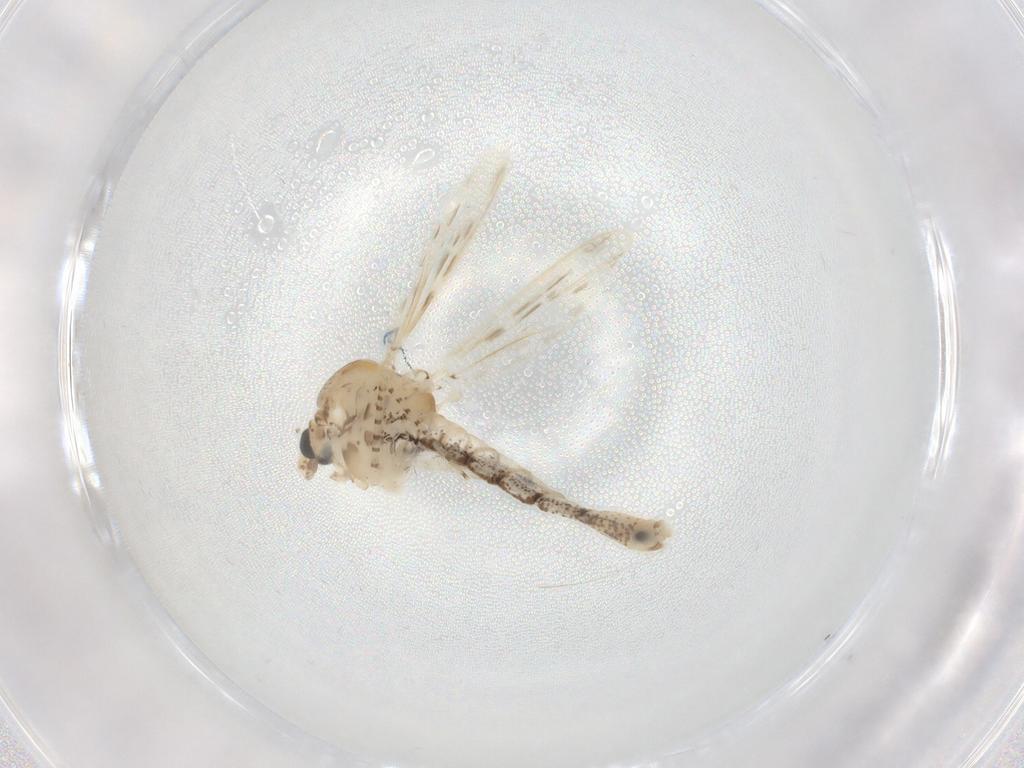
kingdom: Animalia
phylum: Arthropoda
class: Insecta
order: Diptera
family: Chaoboridae
